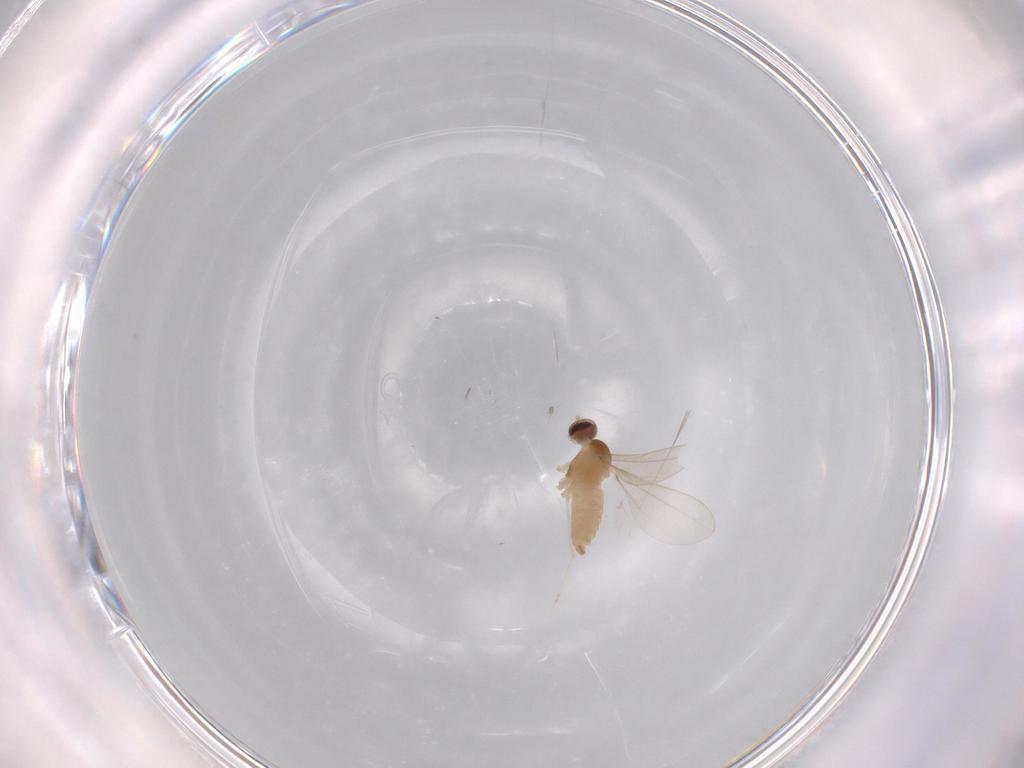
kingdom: Animalia
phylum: Arthropoda
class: Insecta
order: Diptera
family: Cecidomyiidae
